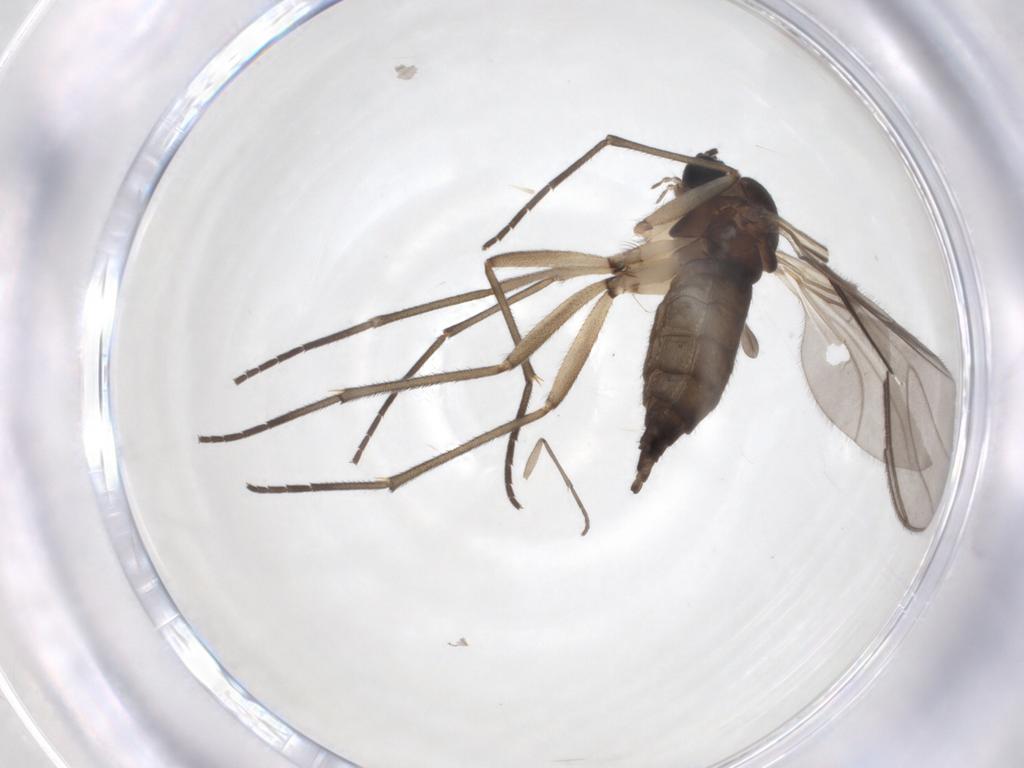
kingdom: Animalia
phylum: Arthropoda
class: Insecta
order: Diptera
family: Sciaridae
